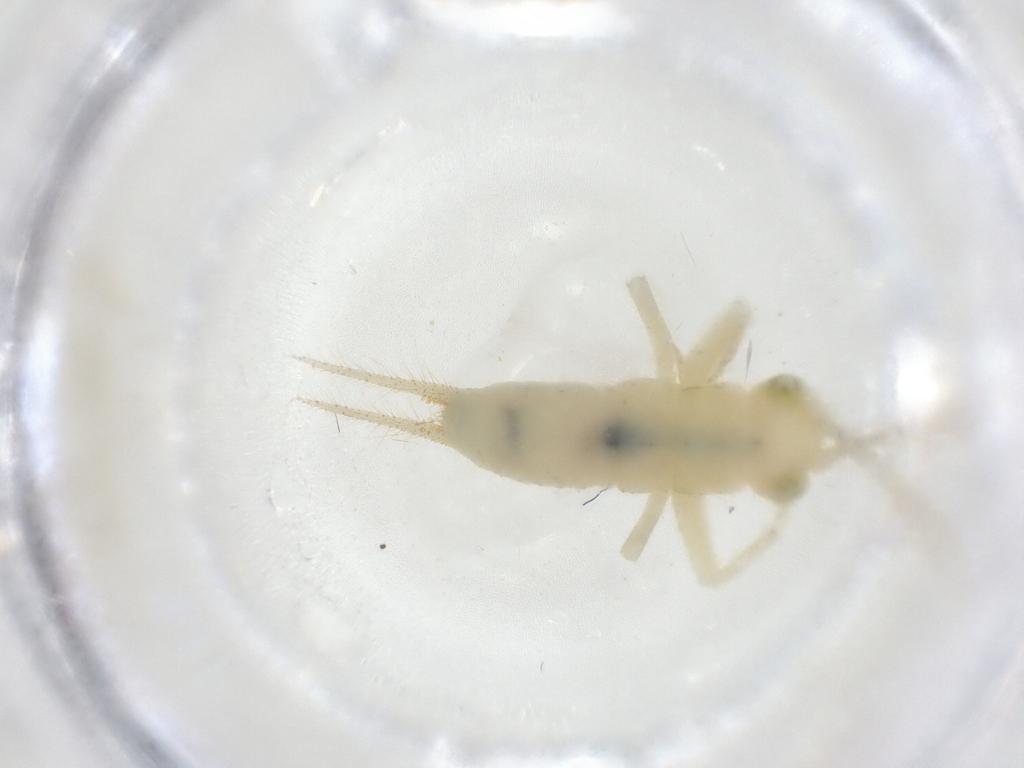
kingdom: Animalia
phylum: Arthropoda
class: Insecta
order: Orthoptera
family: Trigonidiidae
